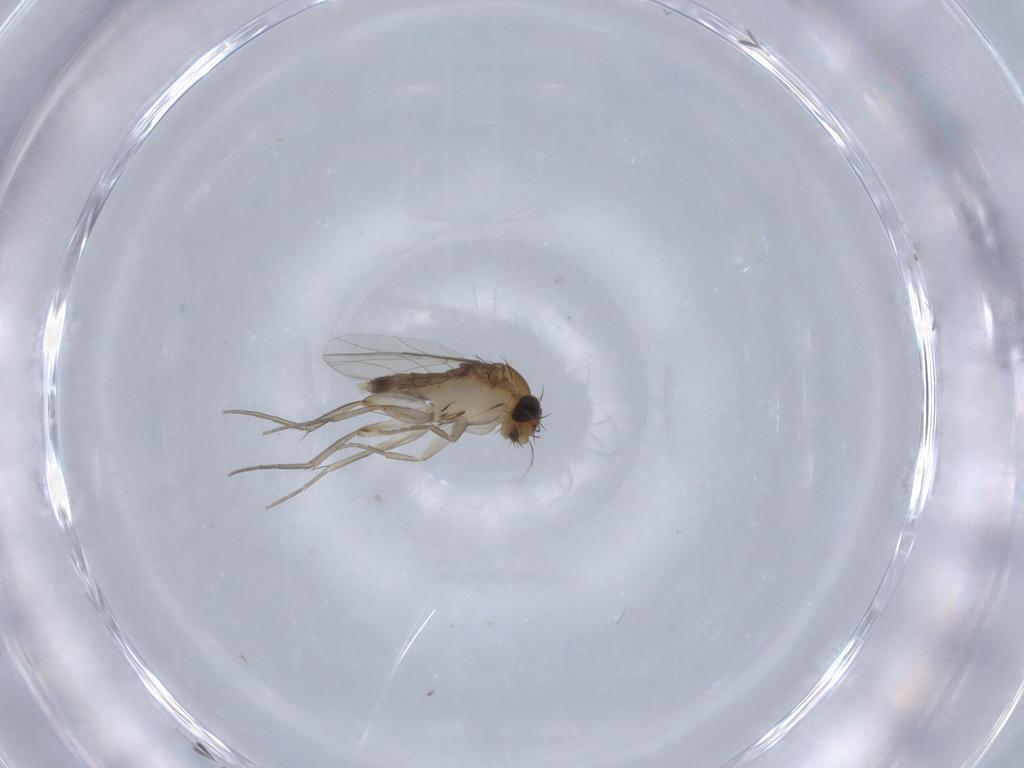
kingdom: Animalia
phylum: Arthropoda
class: Insecta
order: Diptera
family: Phoridae
